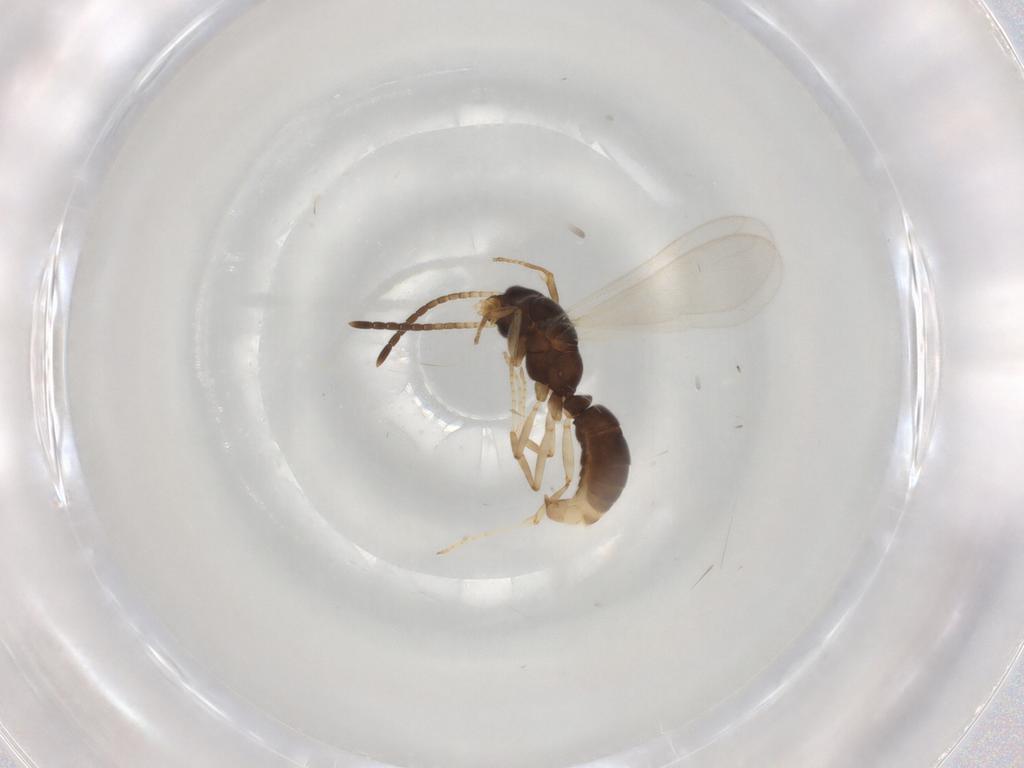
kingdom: Animalia
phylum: Arthropoda
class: Insecta
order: Hymenoptera
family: Formicidae
